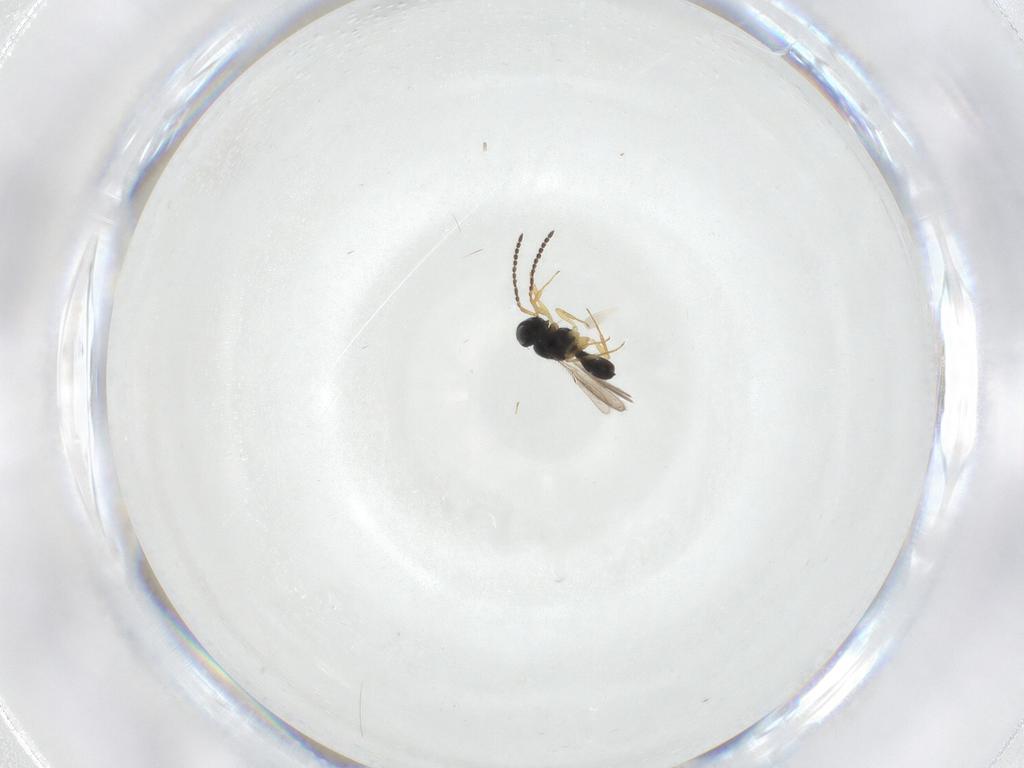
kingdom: Animalia
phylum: Arthropoda
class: Insecta
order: Hymenoptera
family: Scelionidae
